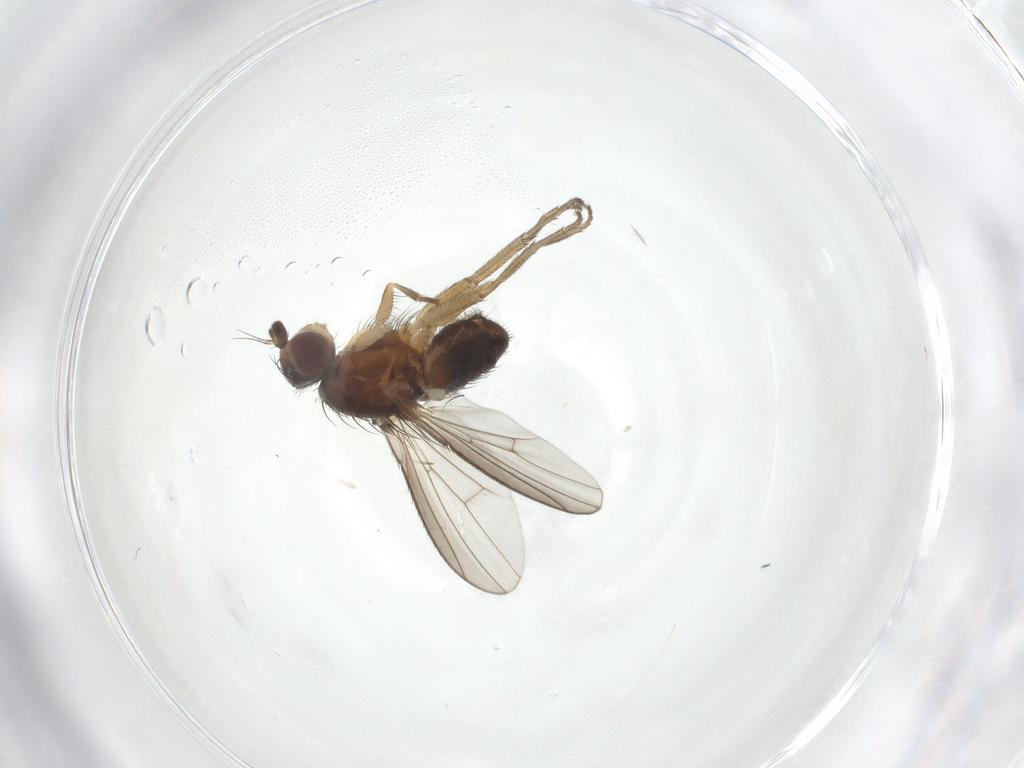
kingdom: Animalia
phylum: Arthropoda
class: Insecta
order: Diptera
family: Heleomyzidae
